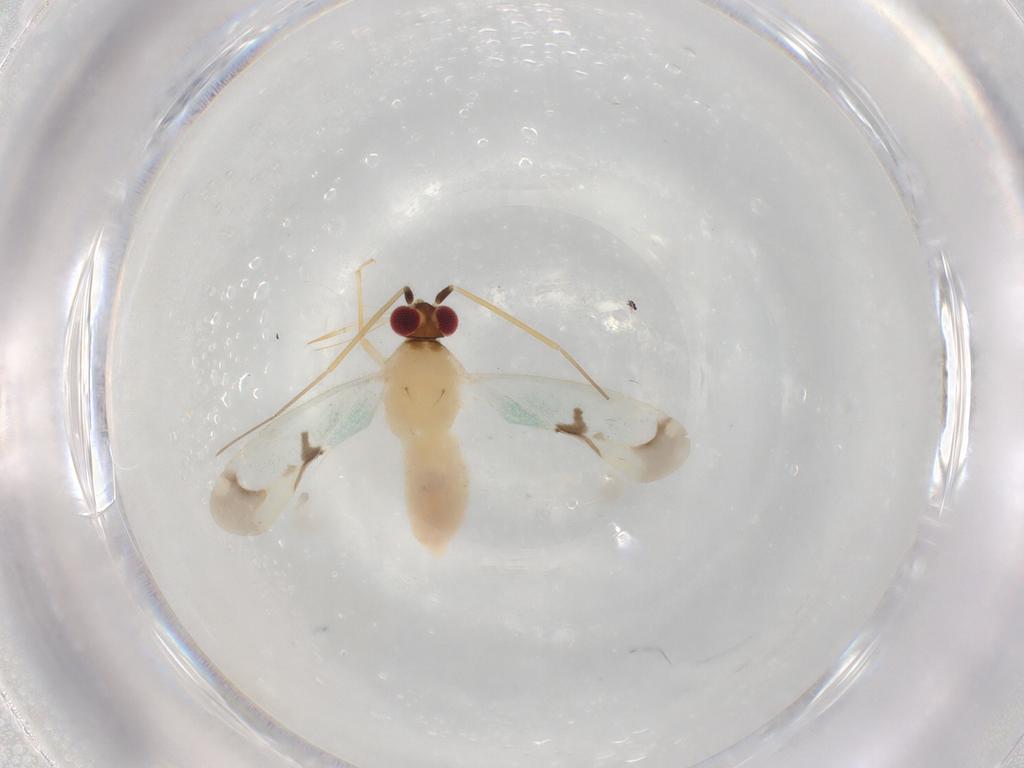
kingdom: Animalia
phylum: Arthropoda
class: Insecta
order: Hemiptera
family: Miridae
